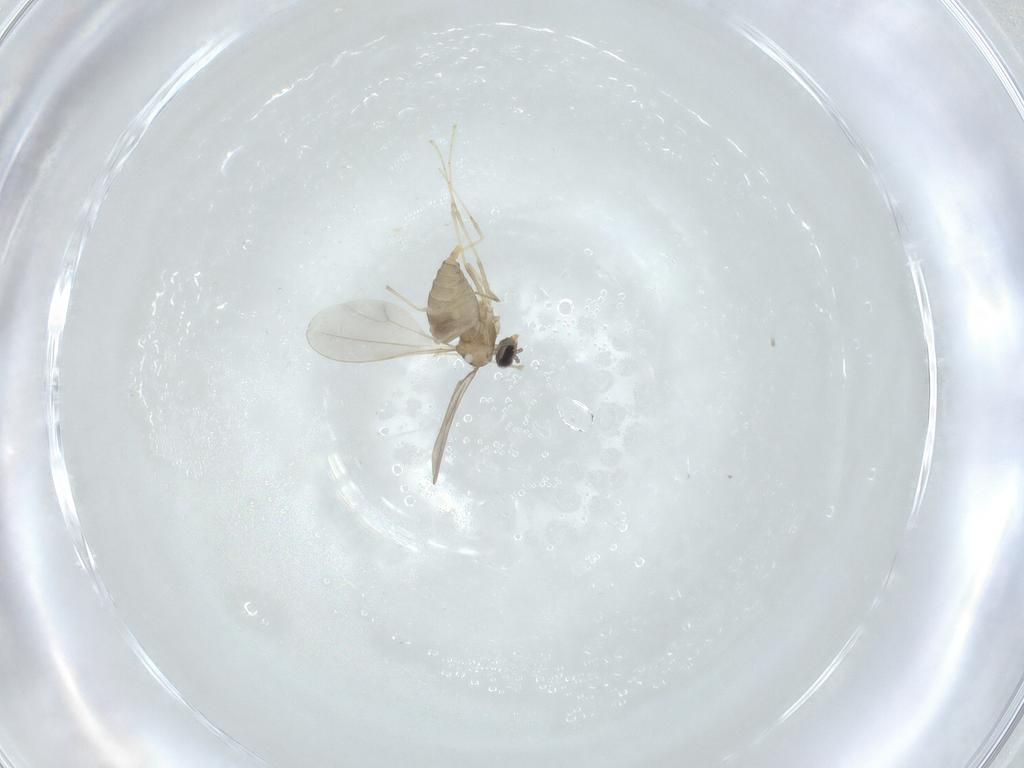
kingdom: Animalia
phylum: Arthropoda
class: Insecta
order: Diptera
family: Cecidomyiidae
